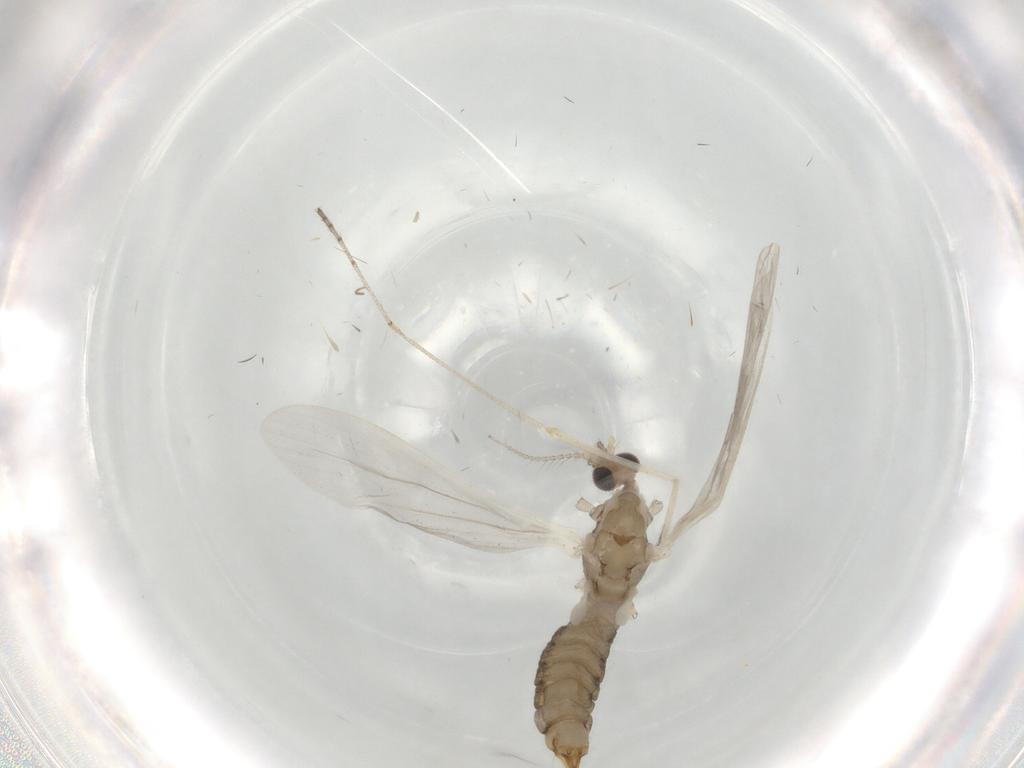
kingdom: Animalia
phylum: Arthropoda
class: Insecta
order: Diptera
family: Limoniidae
